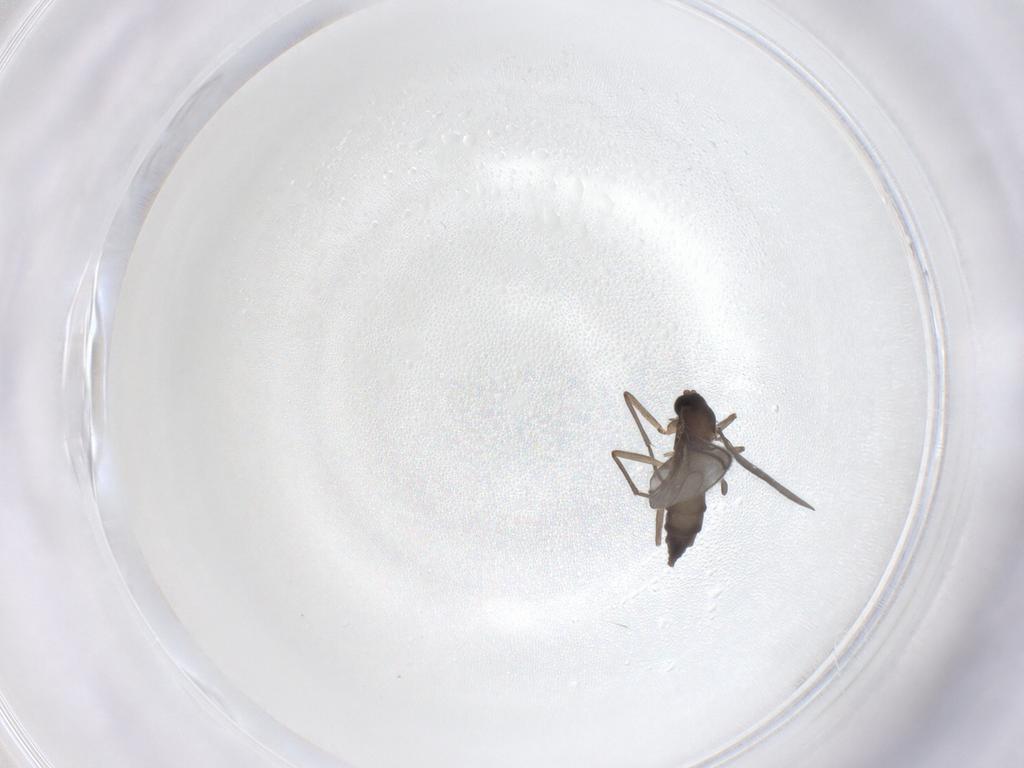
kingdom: Animalia
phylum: Arthropoda
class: Insecta
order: Diptera
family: Sciaridae
